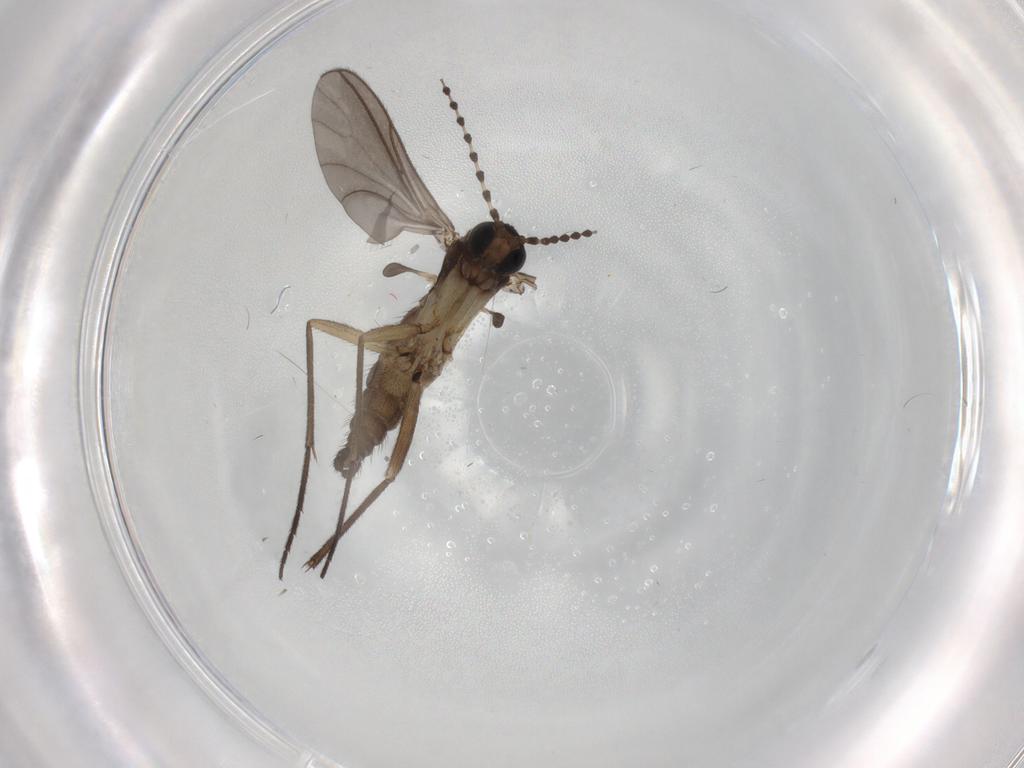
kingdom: Animalia
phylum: Arthropoda
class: Insecta
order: Diptera
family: Sciaridae
